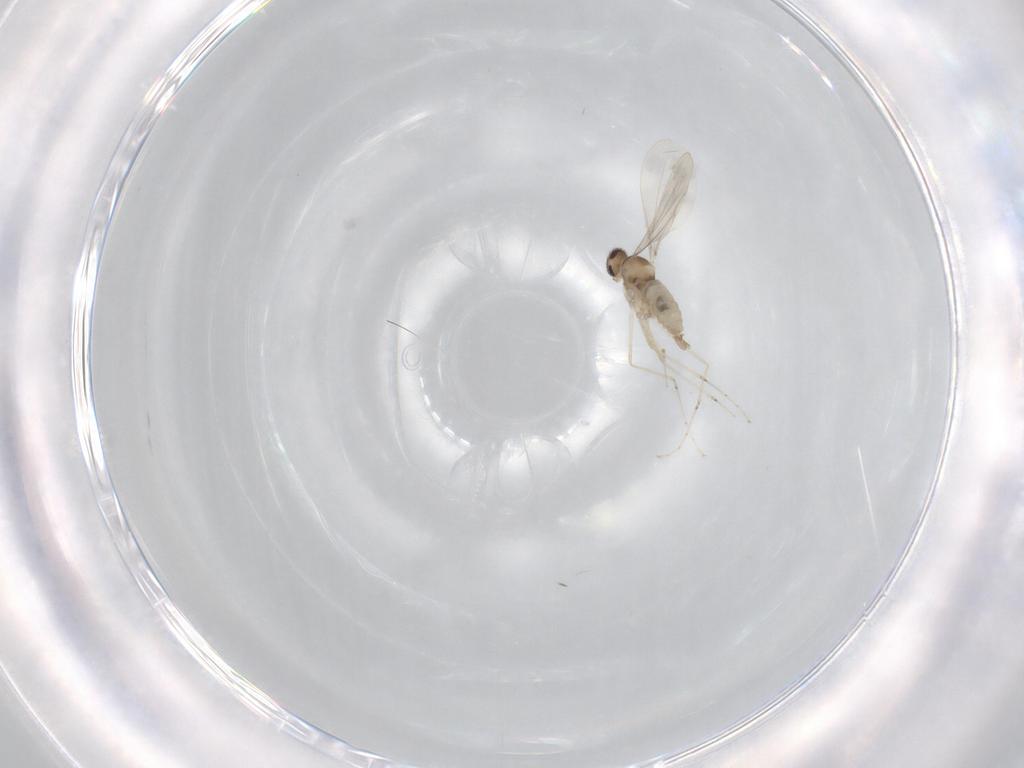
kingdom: Animalia
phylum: Arthropoda
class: Insecta
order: Diptera
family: Cecidomyiidae
